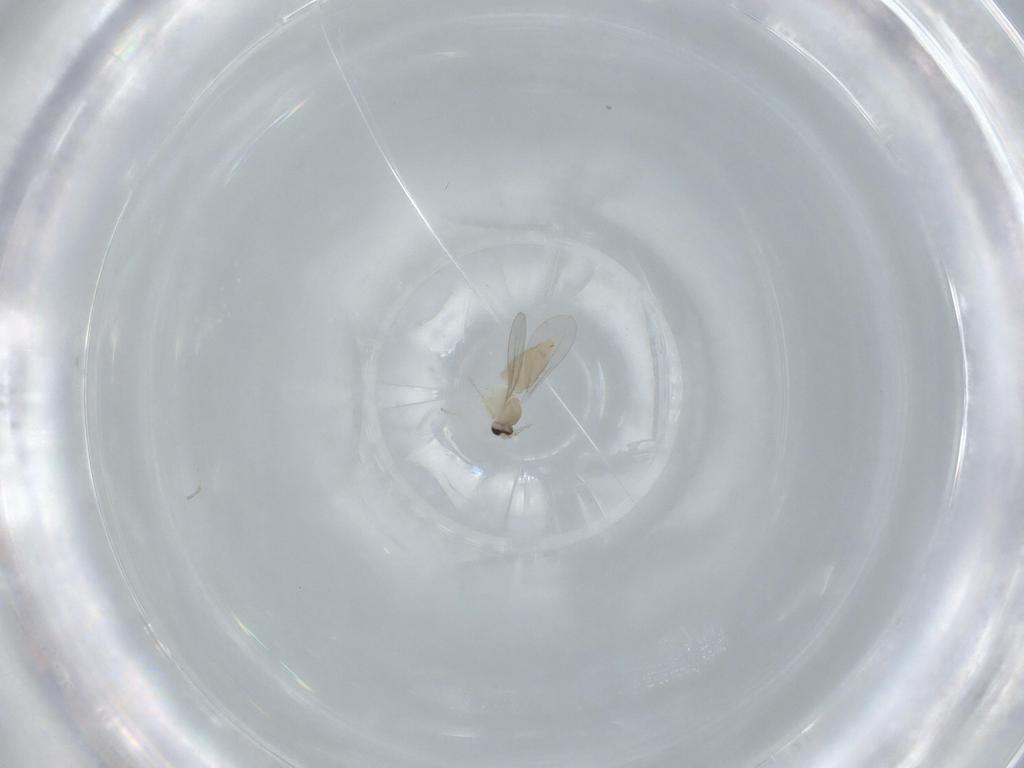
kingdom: Animalia
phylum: Arthropoda
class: Insecta
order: Diptera
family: Cecidomyiidae
